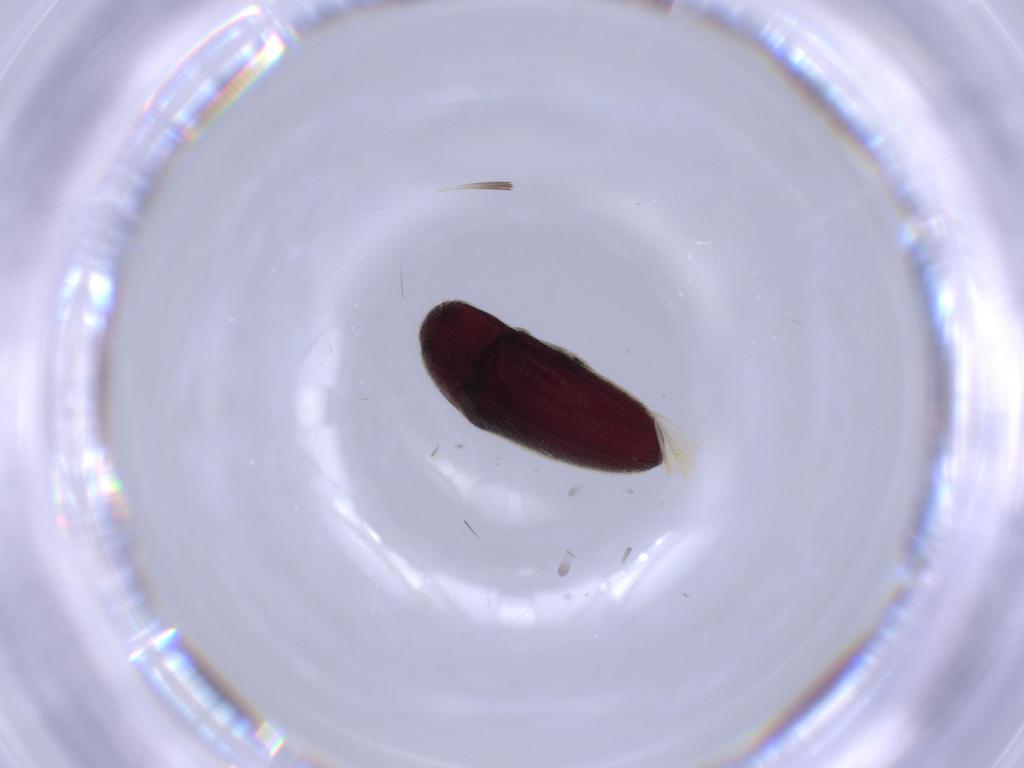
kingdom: Animalia
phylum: Arthropoda
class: Insecta
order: Coleoptera
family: Throscidae
